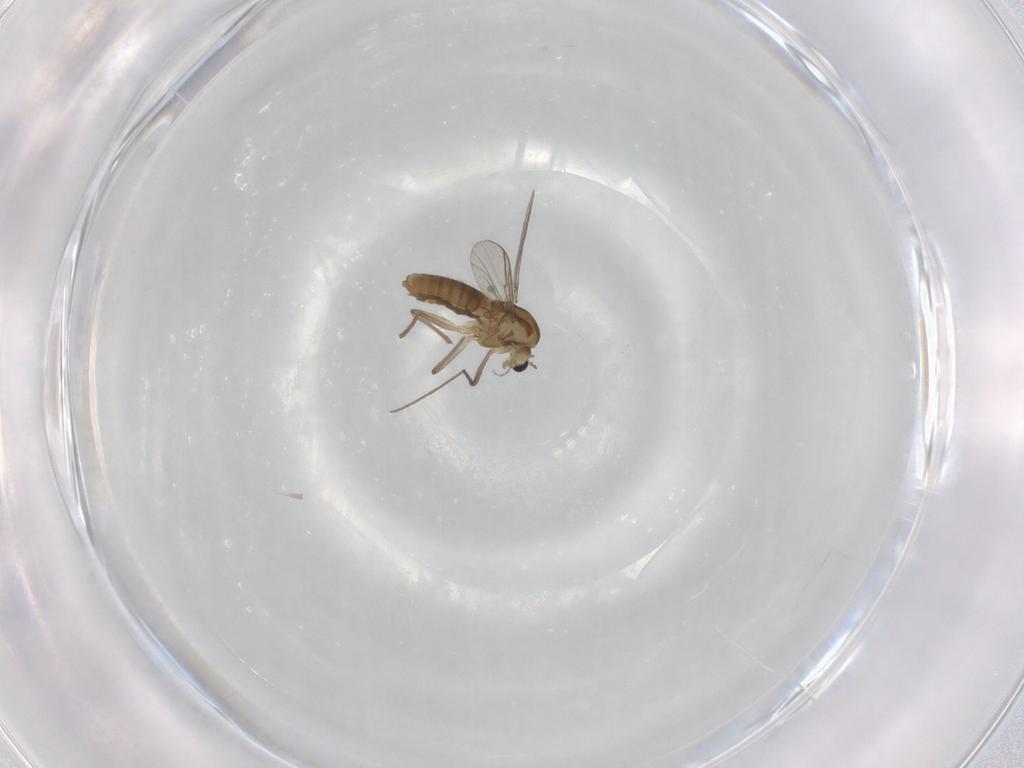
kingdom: Animalia
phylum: Arthropoda
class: Insecta
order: Diptera
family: Chironomidae
